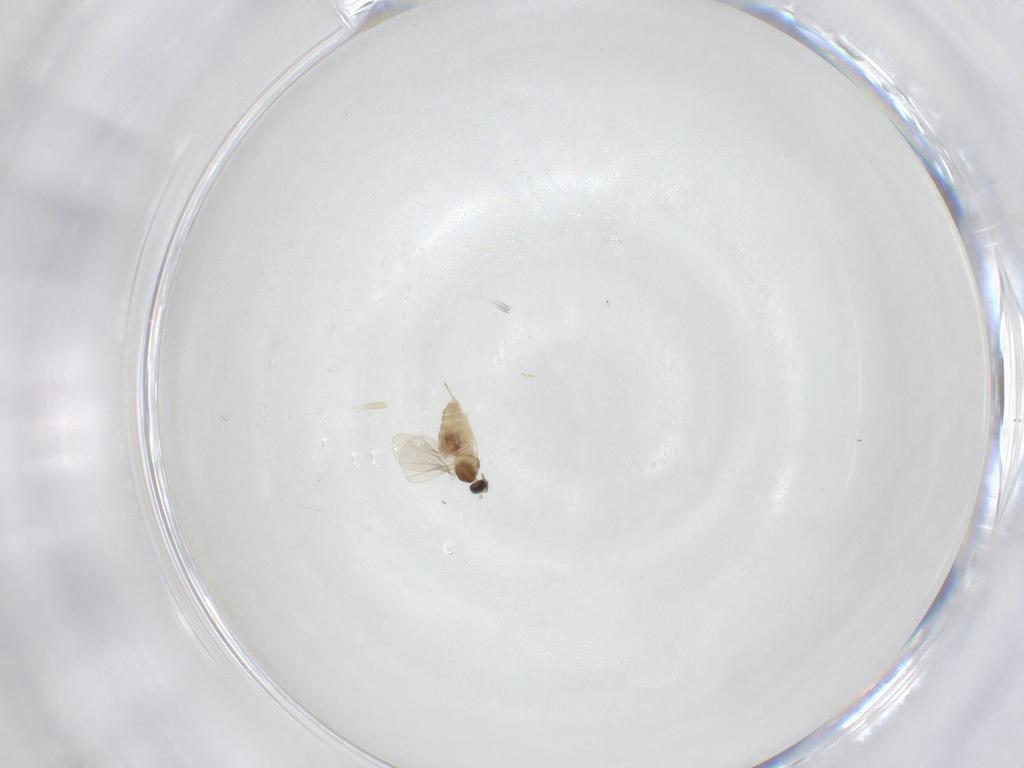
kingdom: Animalia
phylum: Arthropoda
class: Insecta
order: Diptera
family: Cecidomyiidae
